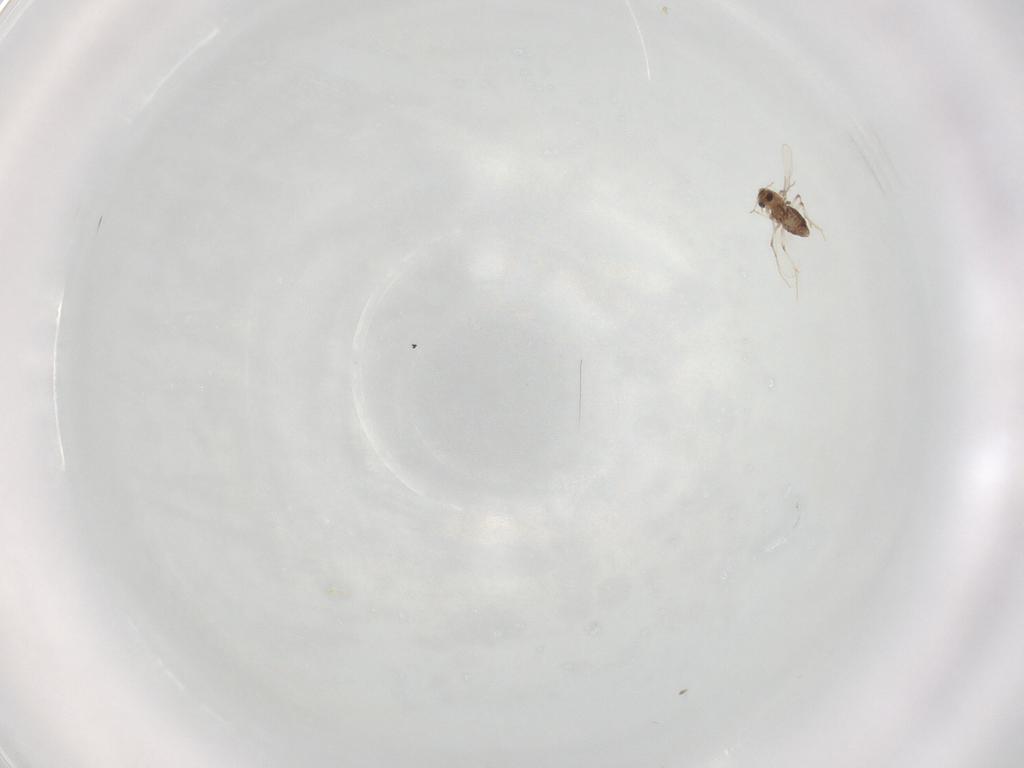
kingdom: Animalia
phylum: Arthropoda
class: Insecta
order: Diptera
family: Chironomidae
